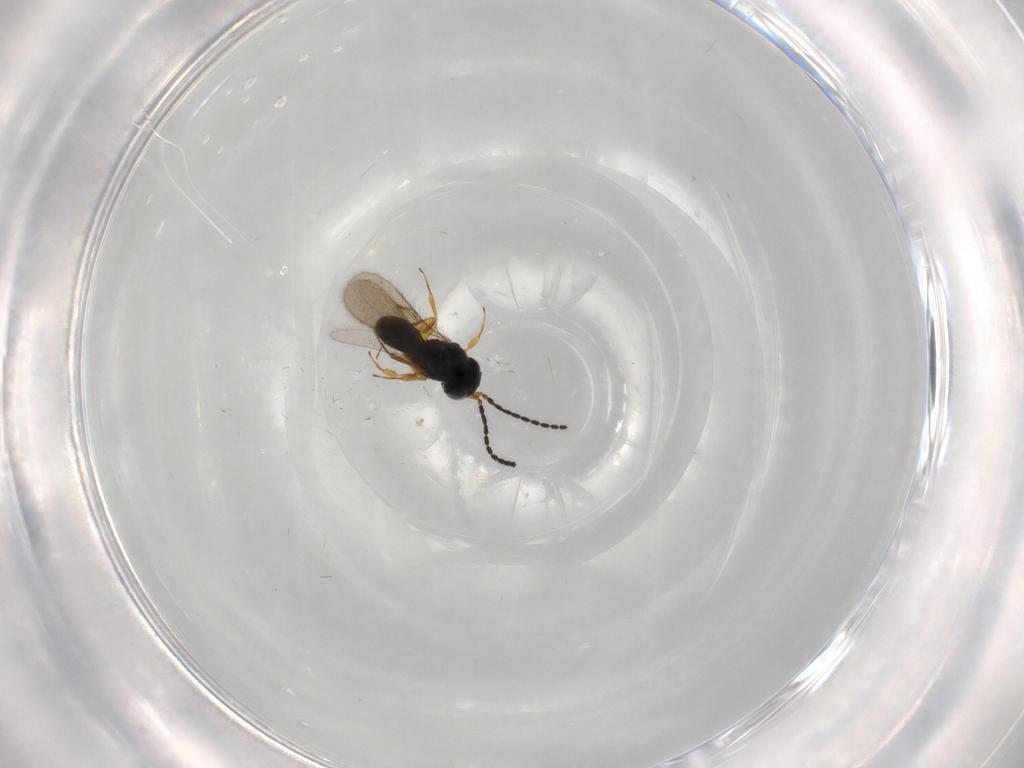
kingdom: Animalia
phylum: Arthropoda
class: Insecta
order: Hymenoptera
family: Scelionidae
